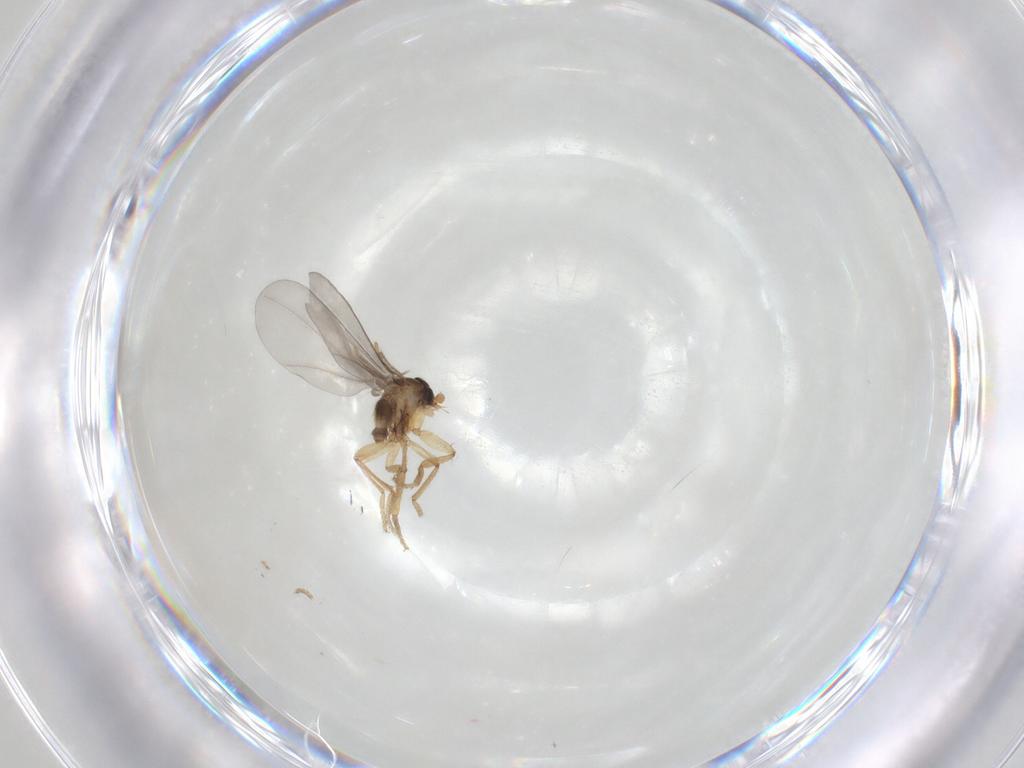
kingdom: Animalia
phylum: Arthropoda
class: Insecta
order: Diptera
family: Phoridae
